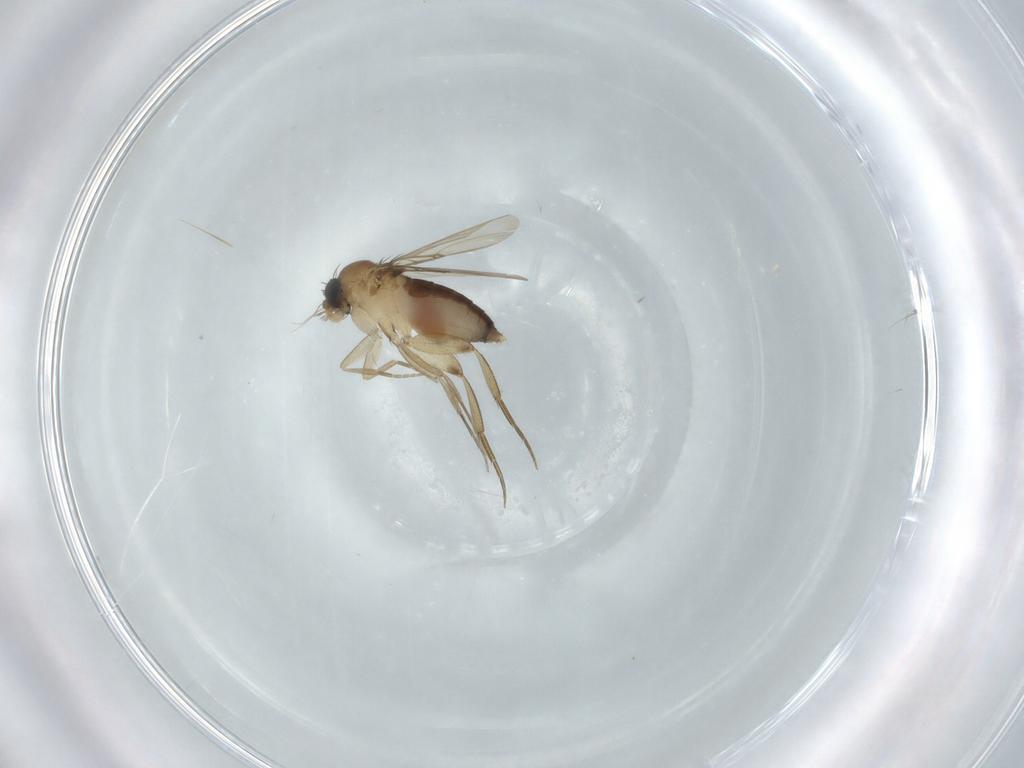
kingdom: Animalia
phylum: Arthropoda
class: Insecta
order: Diptera
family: Phoridae
